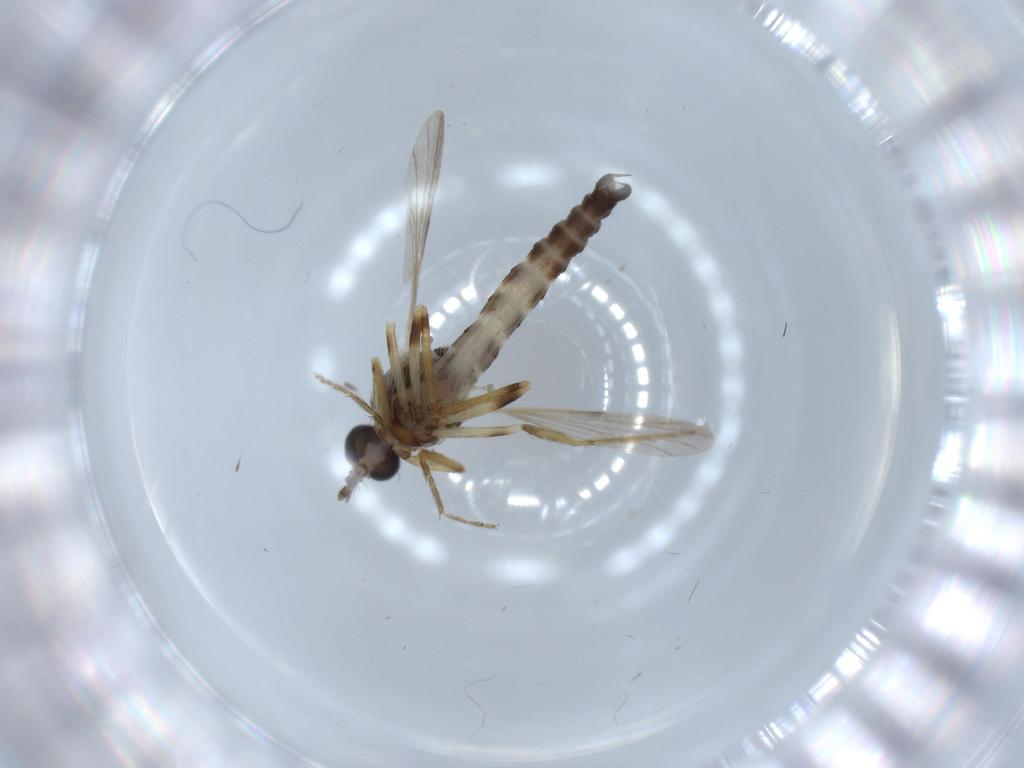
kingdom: Animalia
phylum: Arthropoda
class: Insecta
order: Diptera
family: Ceratopogonidae
